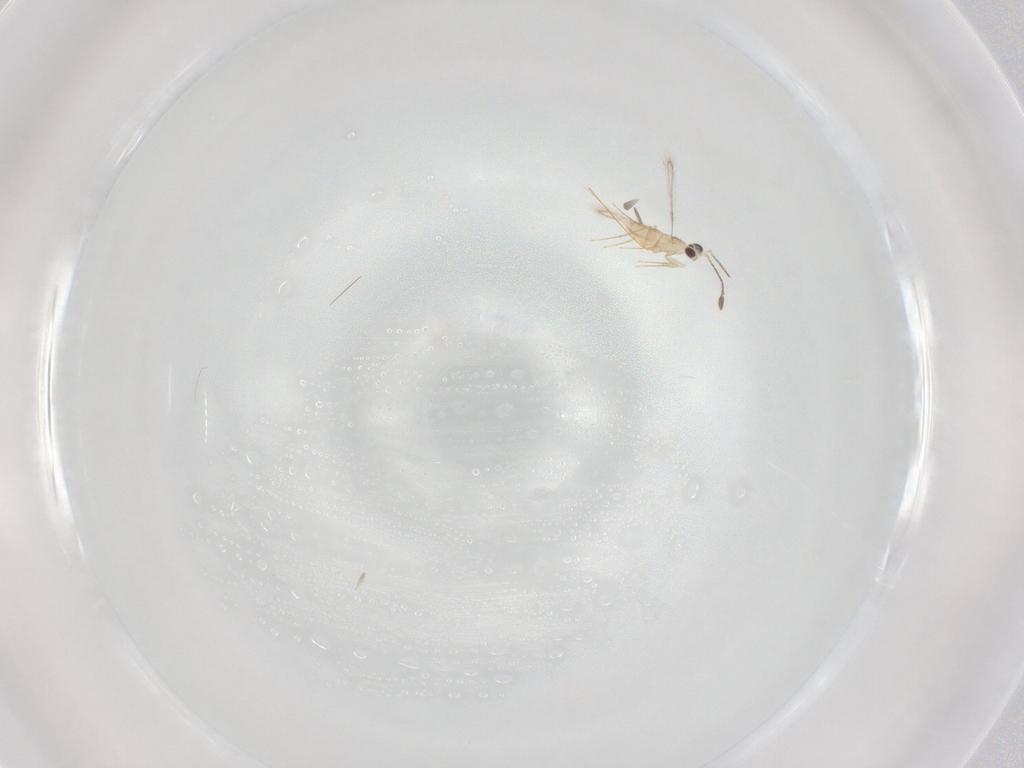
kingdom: Animalia
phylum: Arthropoda
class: Insecta
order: Hymenoptera
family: Mymaridae
